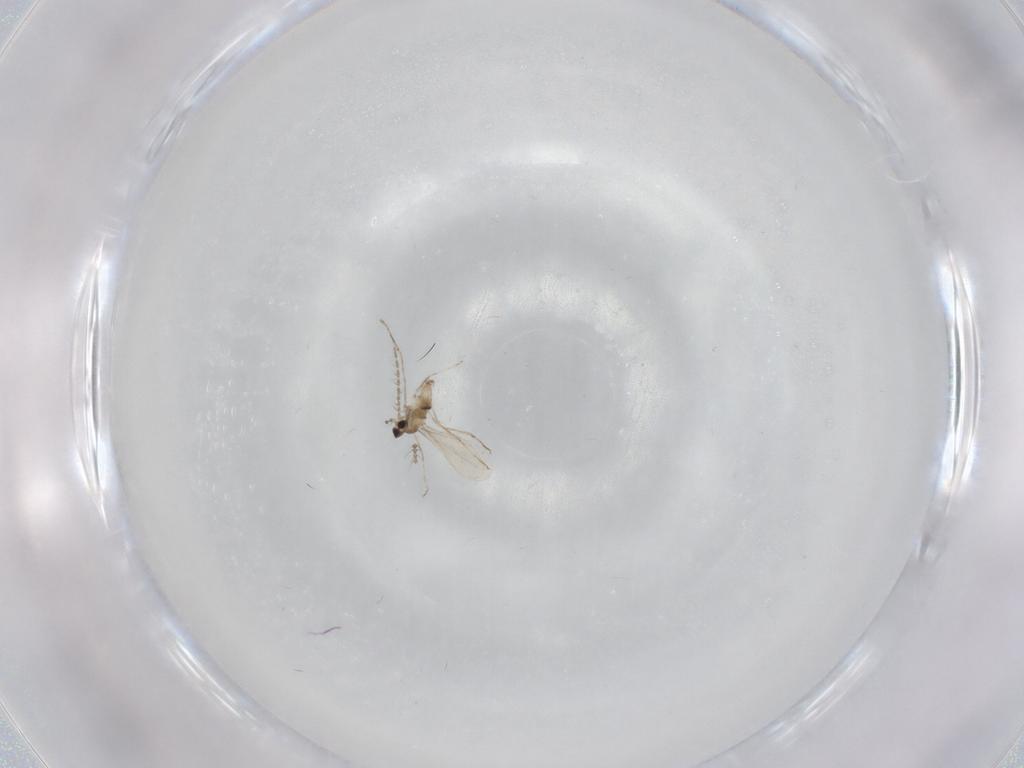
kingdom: Animalia
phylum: Arthropoda
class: Insecta
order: Diptera
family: Cecidomyiidae
